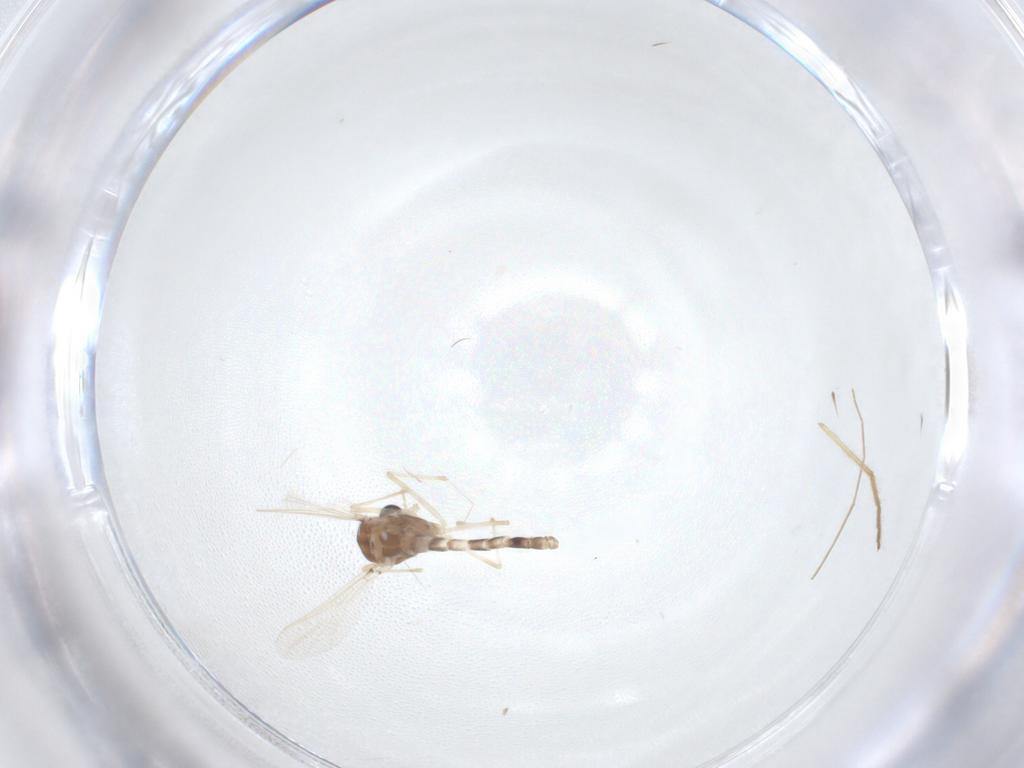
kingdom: Animalia
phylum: Arthropoda
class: Insecta
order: Diptera
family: Chironomidae
